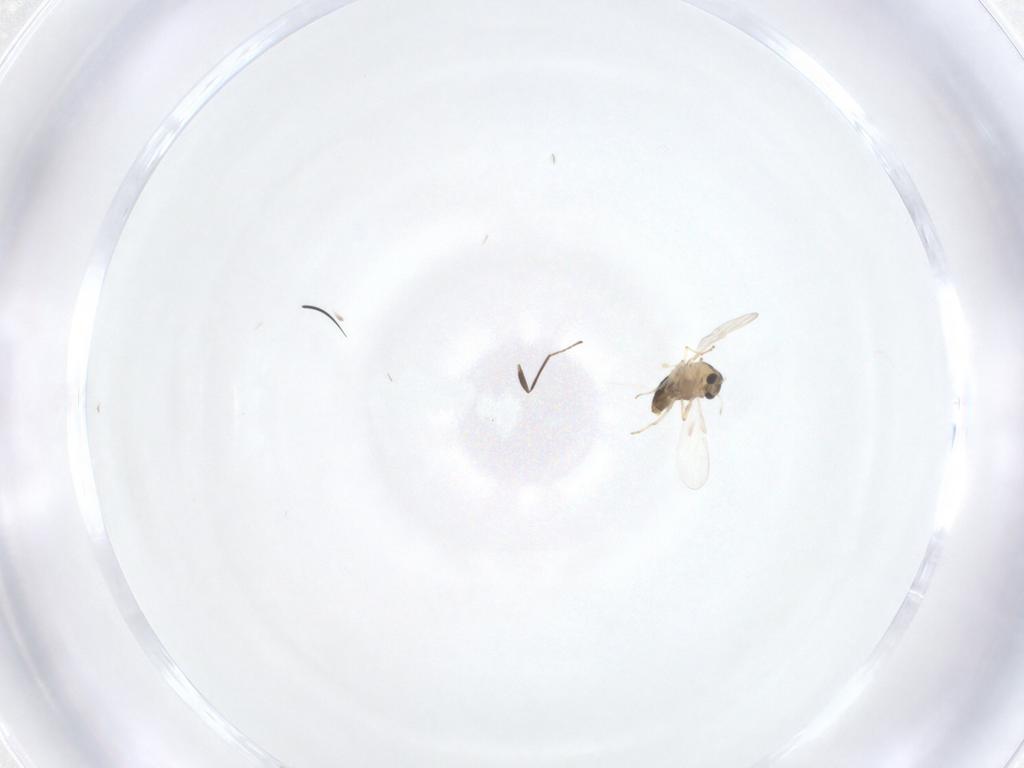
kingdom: Animalia
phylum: Arthropoda
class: Insecta
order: Diptera
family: Chironomidae
